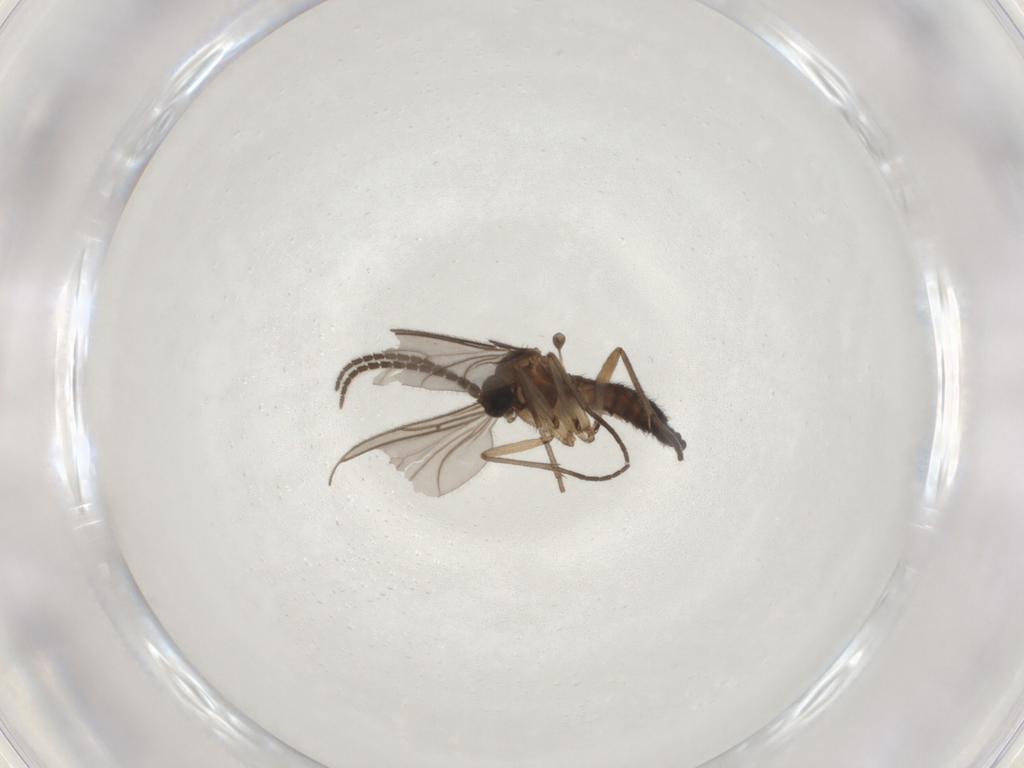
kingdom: Animalia
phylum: Arthropoda
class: Insecta
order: Diptera
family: Sciaridae
